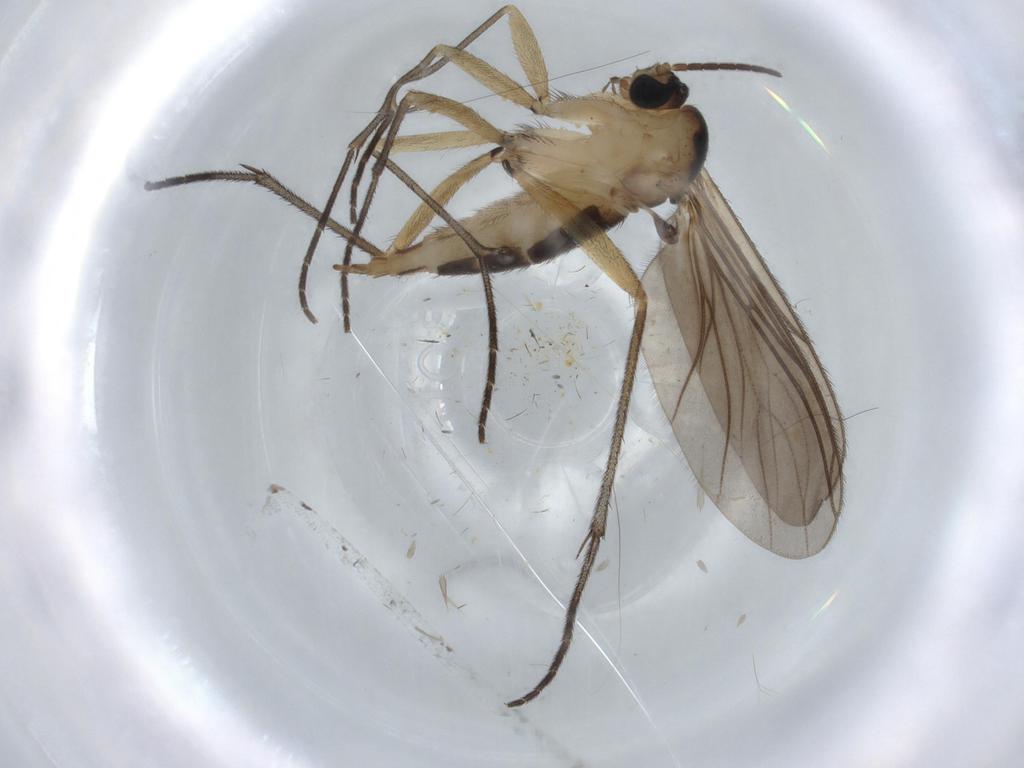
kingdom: Animalia
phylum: Arthropoda
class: Insecta
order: Diptera
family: Sciaridae
